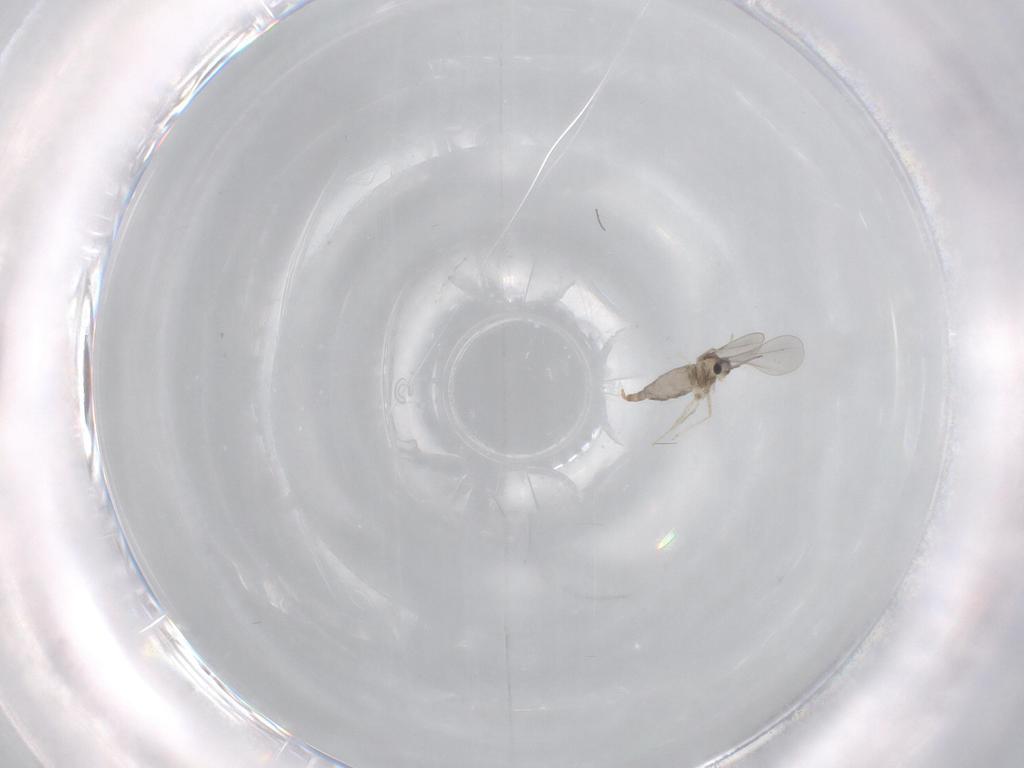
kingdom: Animalia
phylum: Arthropoda
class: Insecta
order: Diptera
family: Cecidomyiidae
